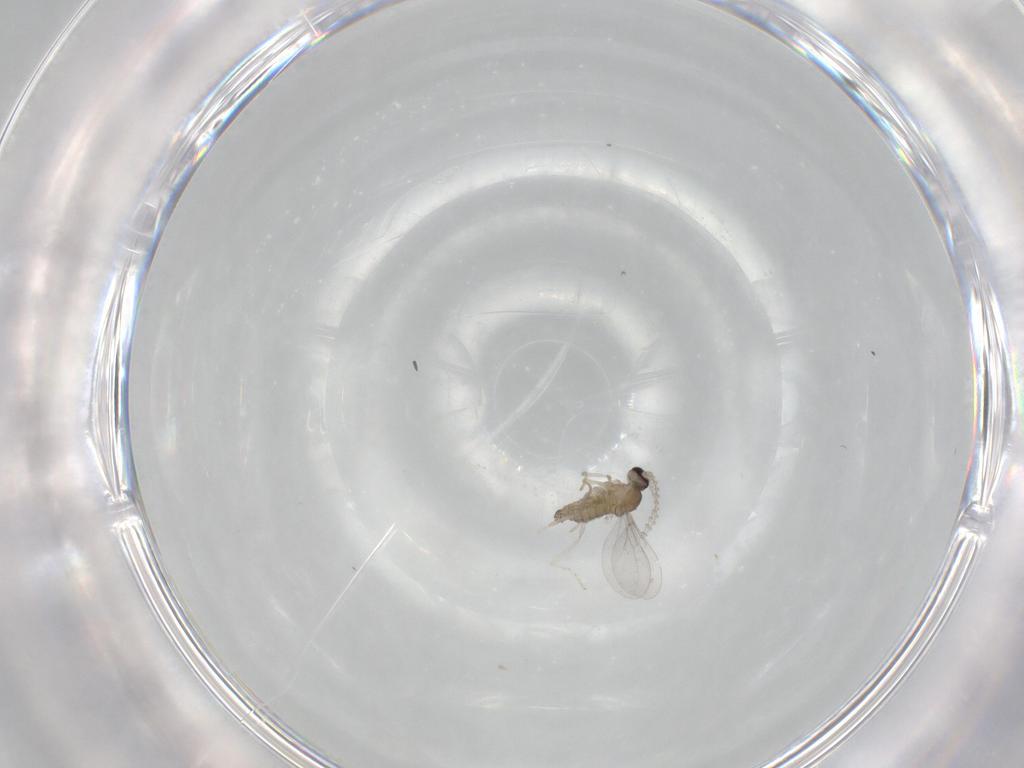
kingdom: Animalia
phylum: Arthropoda
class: Insecta
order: Diptera
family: Cecidomyiidae
